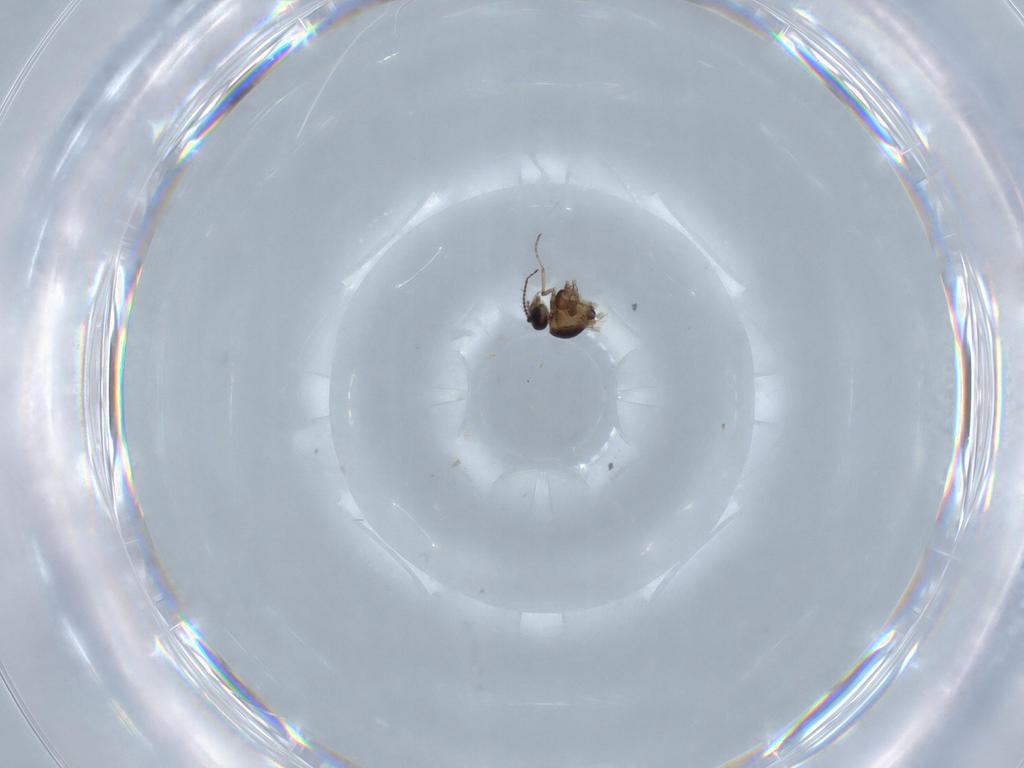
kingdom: Animalia
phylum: Arthropoda
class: Insecta
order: Diptera
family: Ceratopogonidae
